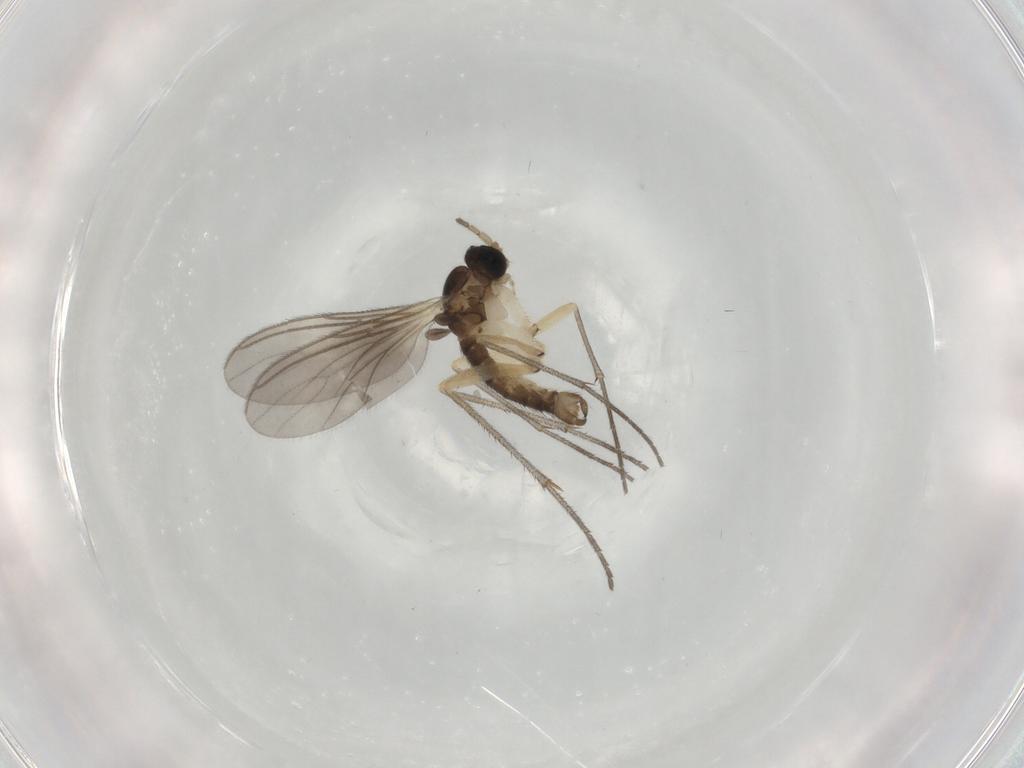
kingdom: Animalia
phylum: Arthropoda
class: Insecta
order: Diptera
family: Sciaridae
